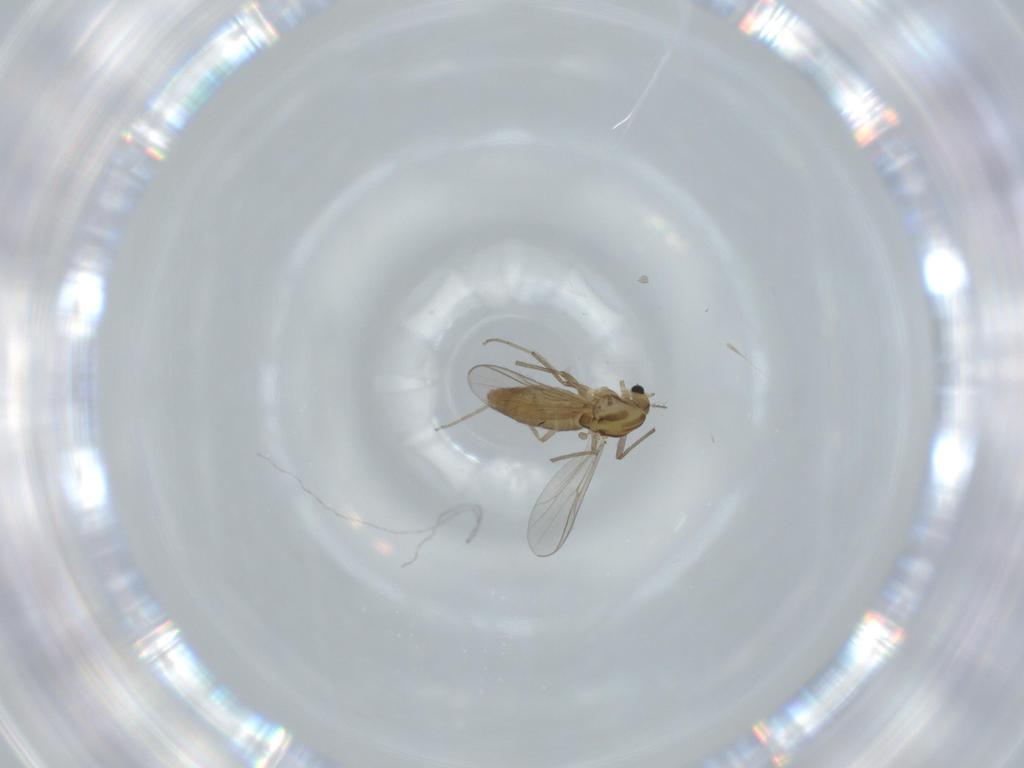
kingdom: Animalia
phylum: Arthropoda
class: Insecta
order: Diptera
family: Chironomidae
